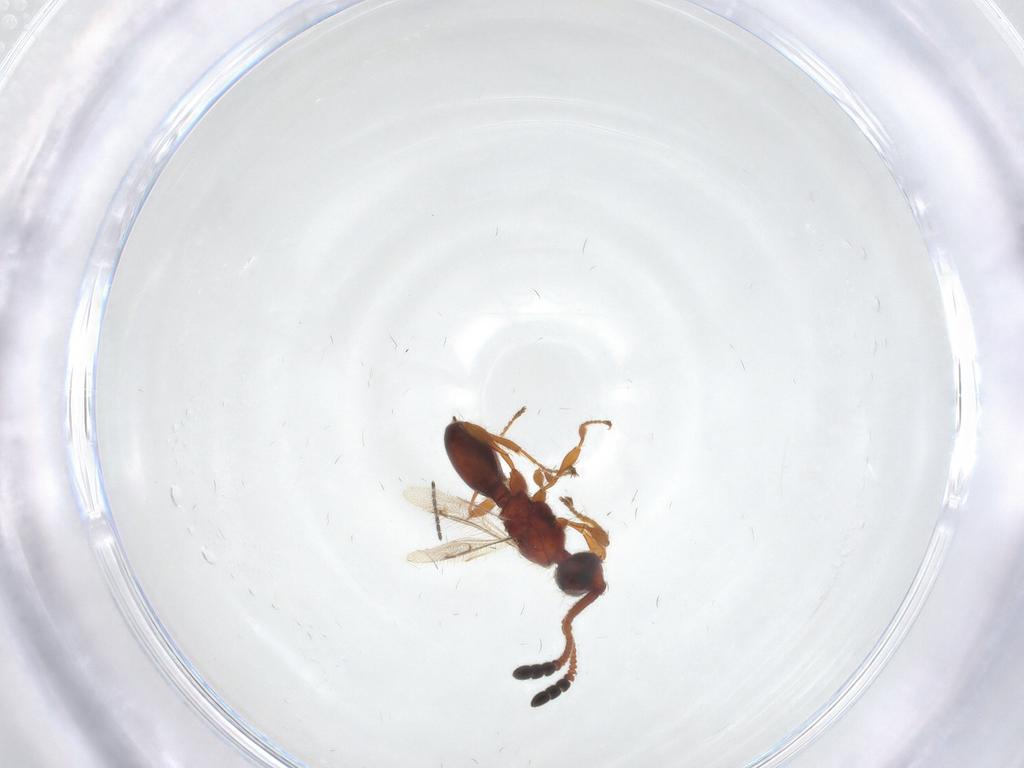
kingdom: Animalia
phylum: Arthropoda
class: Insecta
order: Hymenoptera
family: Diapriidae
